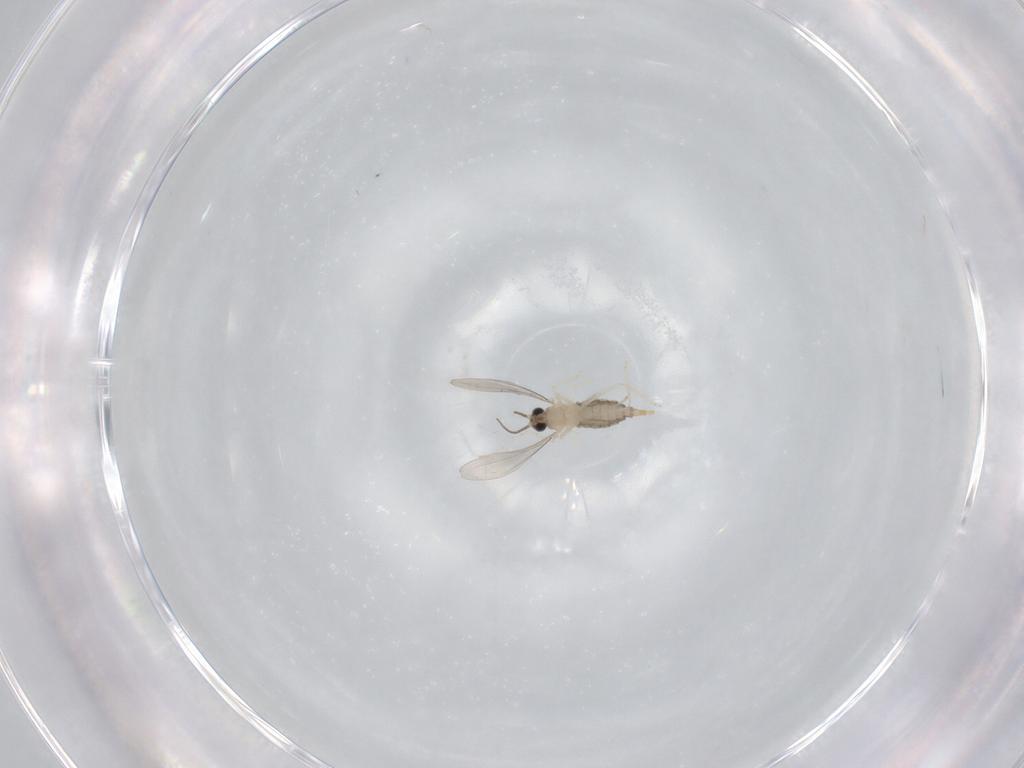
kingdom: Animalia
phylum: Arthropoda
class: Insecta
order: Diptera
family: Cecidomyiidae
